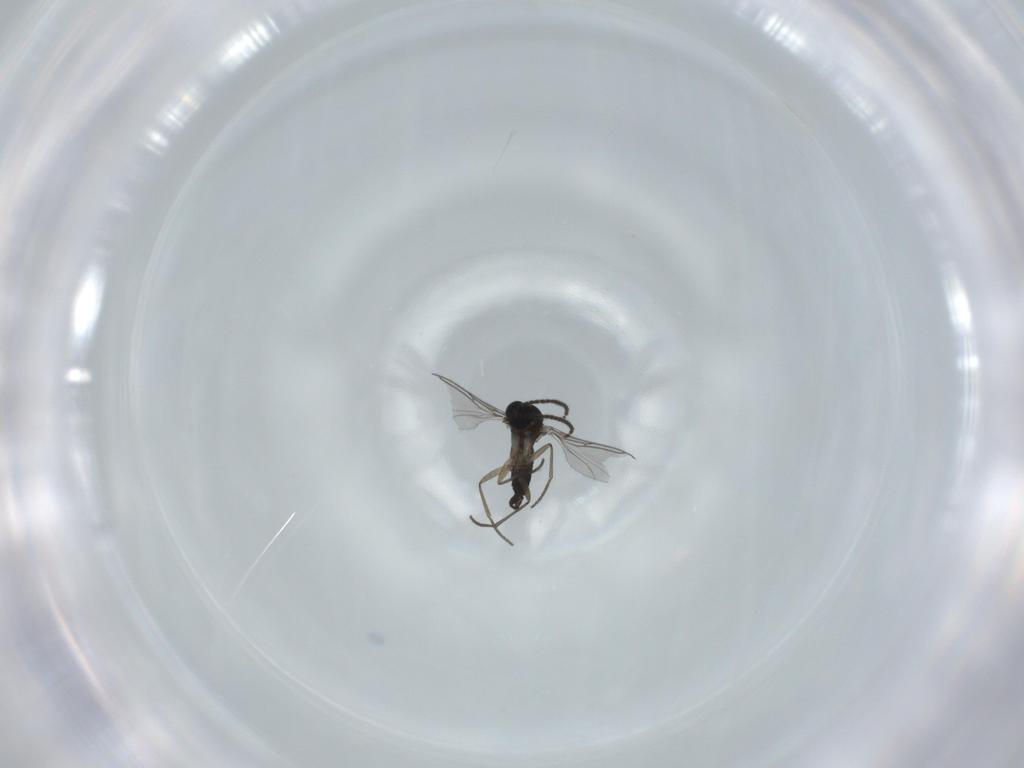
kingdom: Animalia
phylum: Arthropoda
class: Insecta
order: Diptera
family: Sciaridae
